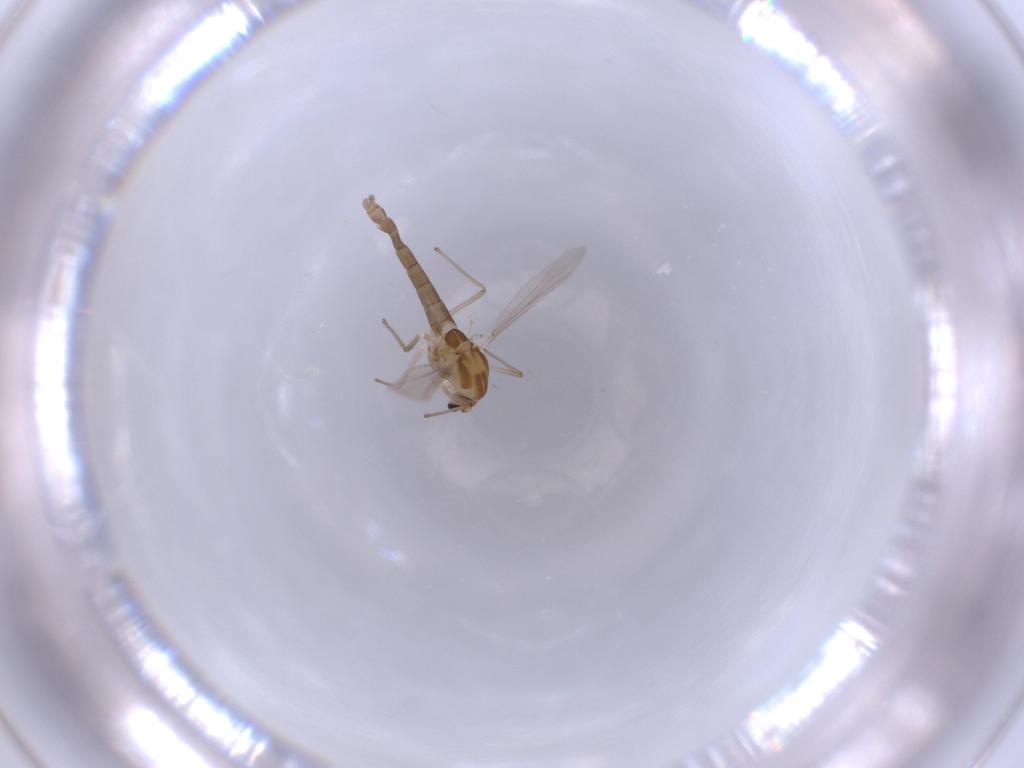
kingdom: Animalia
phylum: Arthropoda
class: Insecta
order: Diptera
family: Chironomidae
